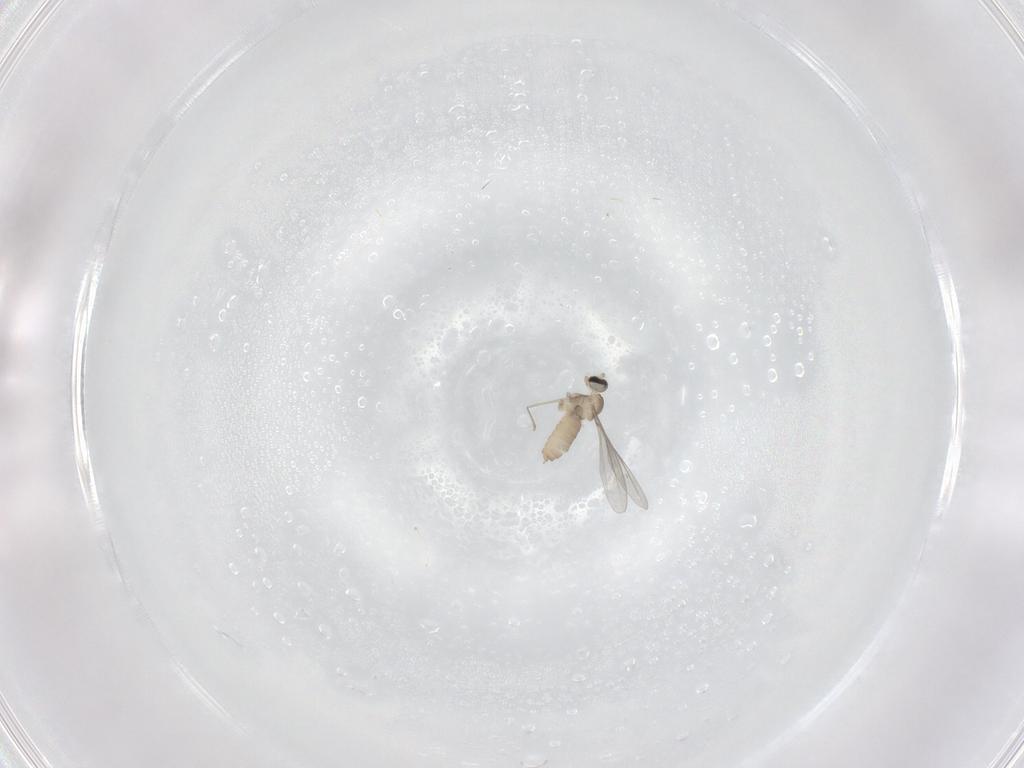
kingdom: Animalia
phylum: Arthropoda
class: Insecta
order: Diptera
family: Cecidomyiidae
